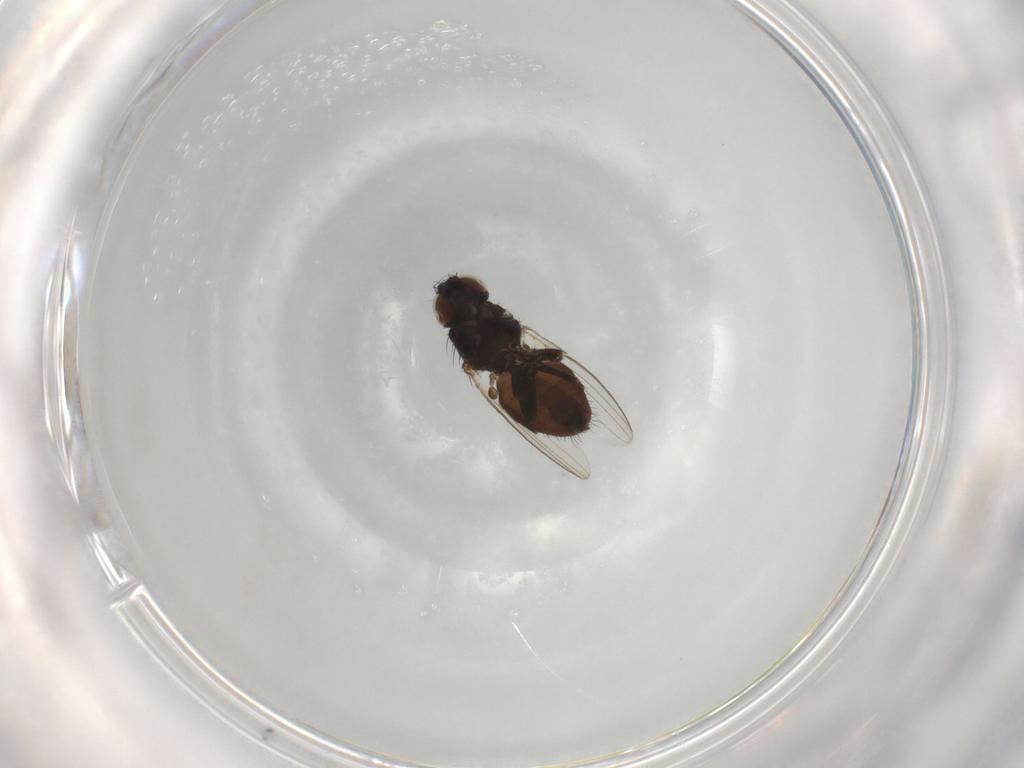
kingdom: Animalia
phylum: Arthropoda
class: Insecta
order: Diptera
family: Milichiidae
